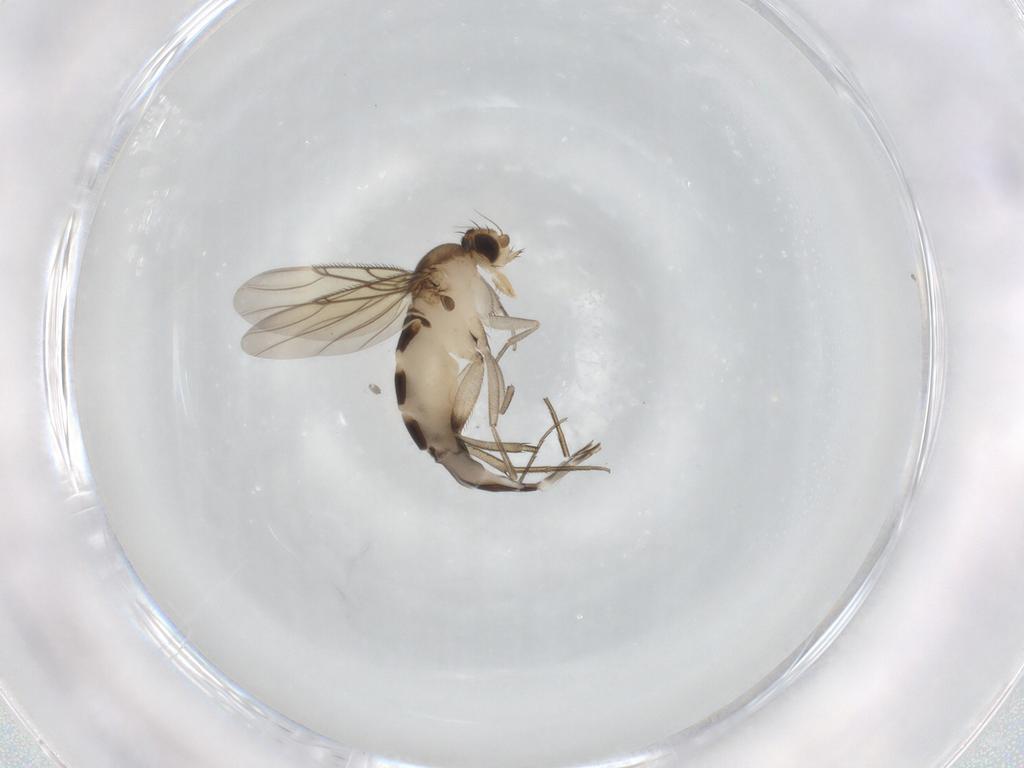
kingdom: Animalia
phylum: Arthropoda
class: Insecta
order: Diptera
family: Phoridae
